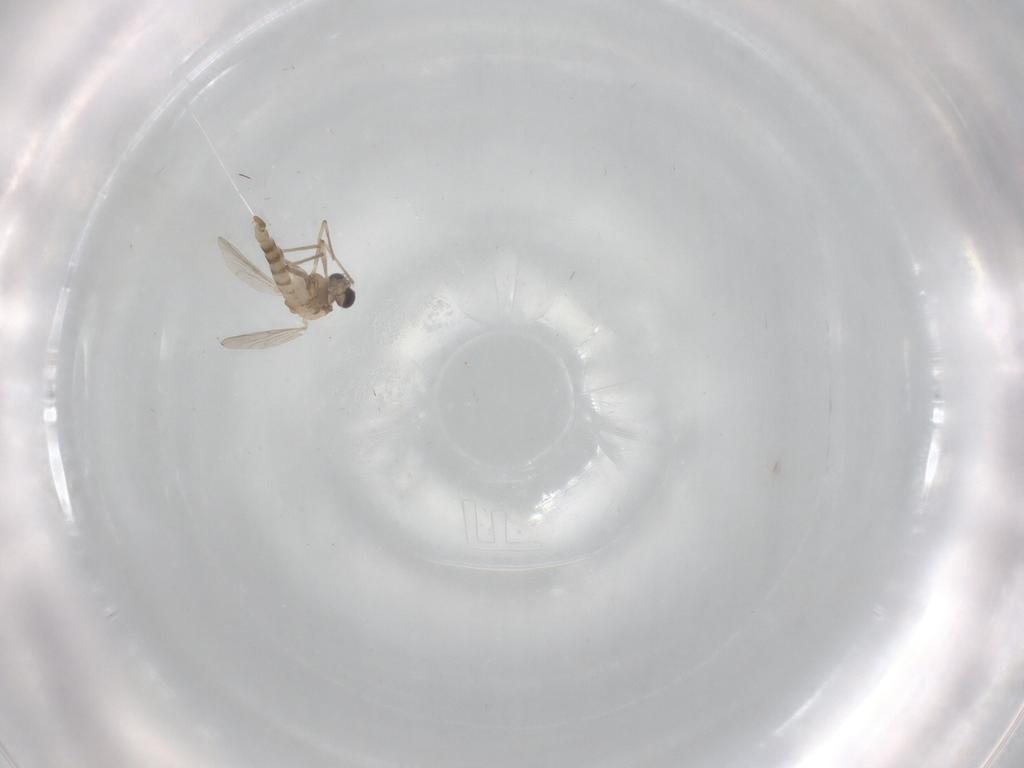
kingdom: Animalia
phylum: Arthropoda
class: Insecta
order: Diptera
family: Chironomidae
